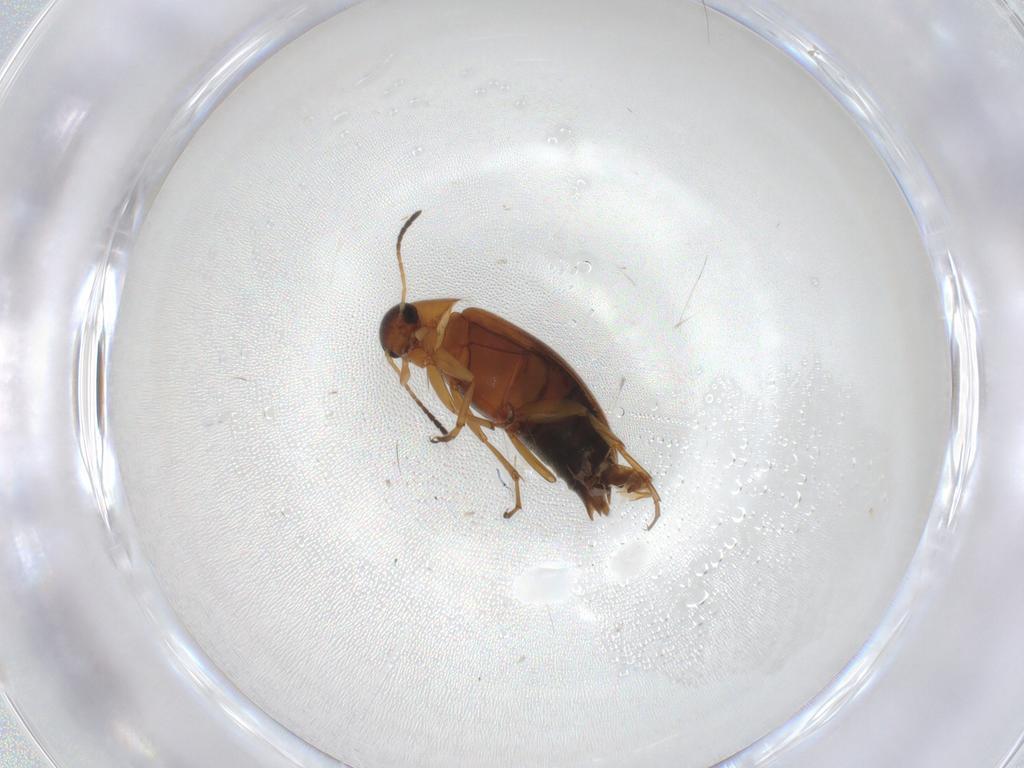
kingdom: Animalia
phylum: Arthropoda
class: Insecta
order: Coleoptera
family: Scraptiidae
